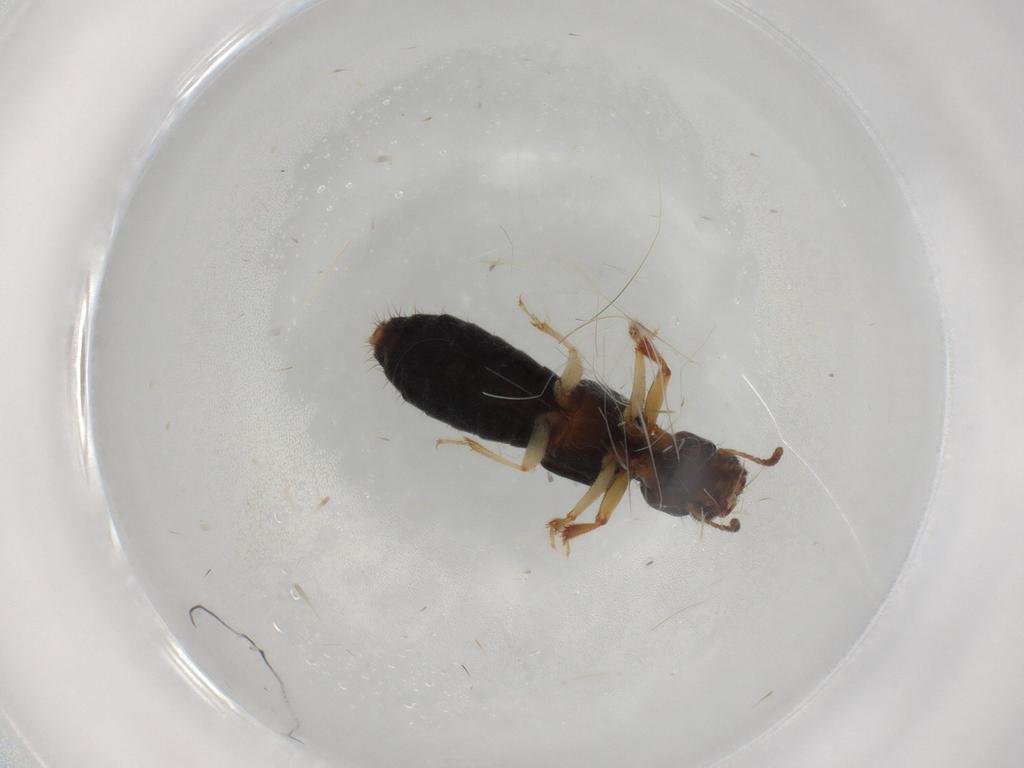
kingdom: Animalia
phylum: Arthropoda
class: Insecta
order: Coleoptera
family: Staphylinidae
